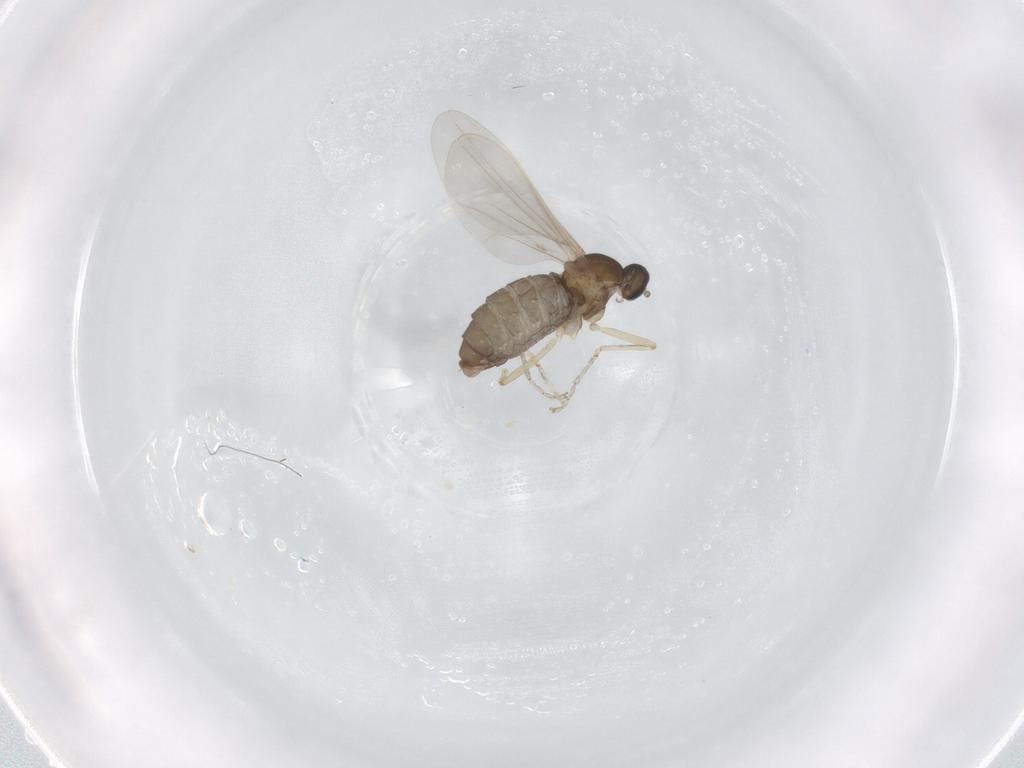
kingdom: Animalia
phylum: Arthropoda
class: Insecta
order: Diptera
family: Cecidomyiidae
